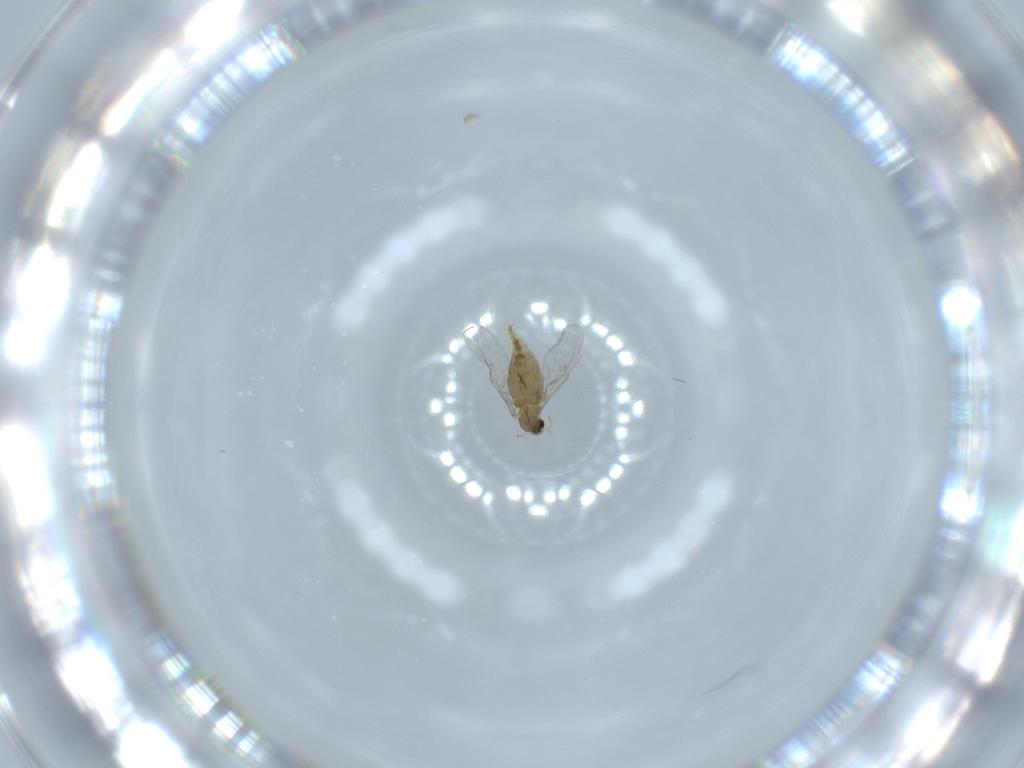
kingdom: Animalia
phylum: Arthropoda
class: Insecta
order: Diptera
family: Cecidomyiidae
